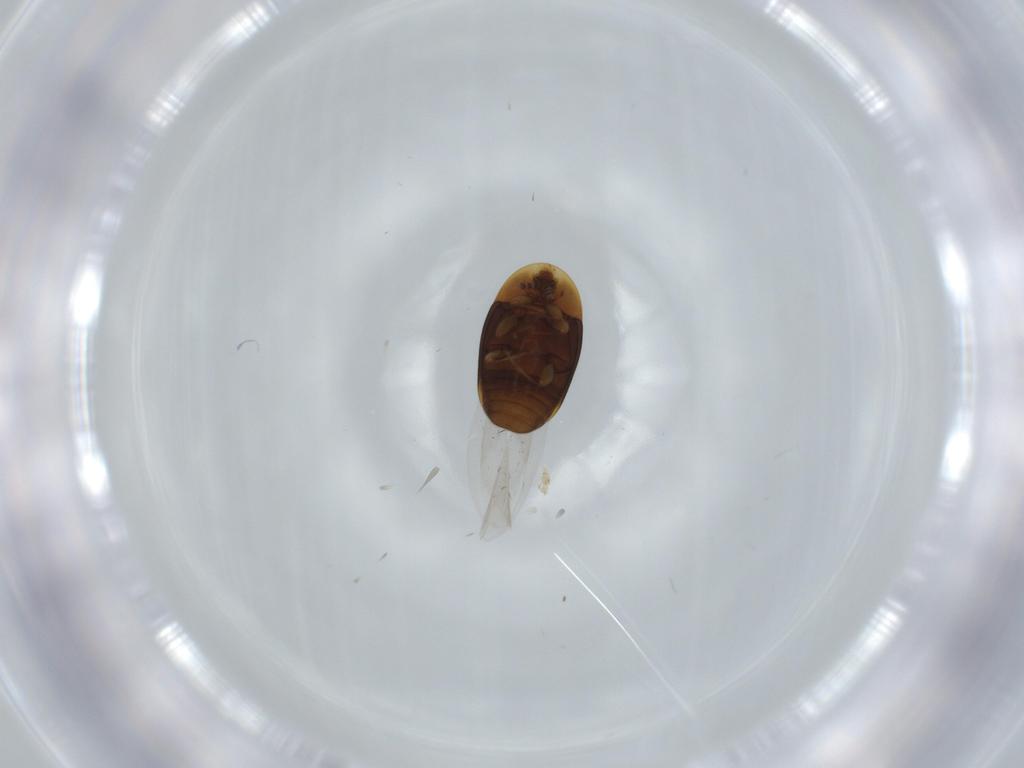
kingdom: Animalia
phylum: Arthropoda
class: Insecta
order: Coleoptera
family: Corylophidae
